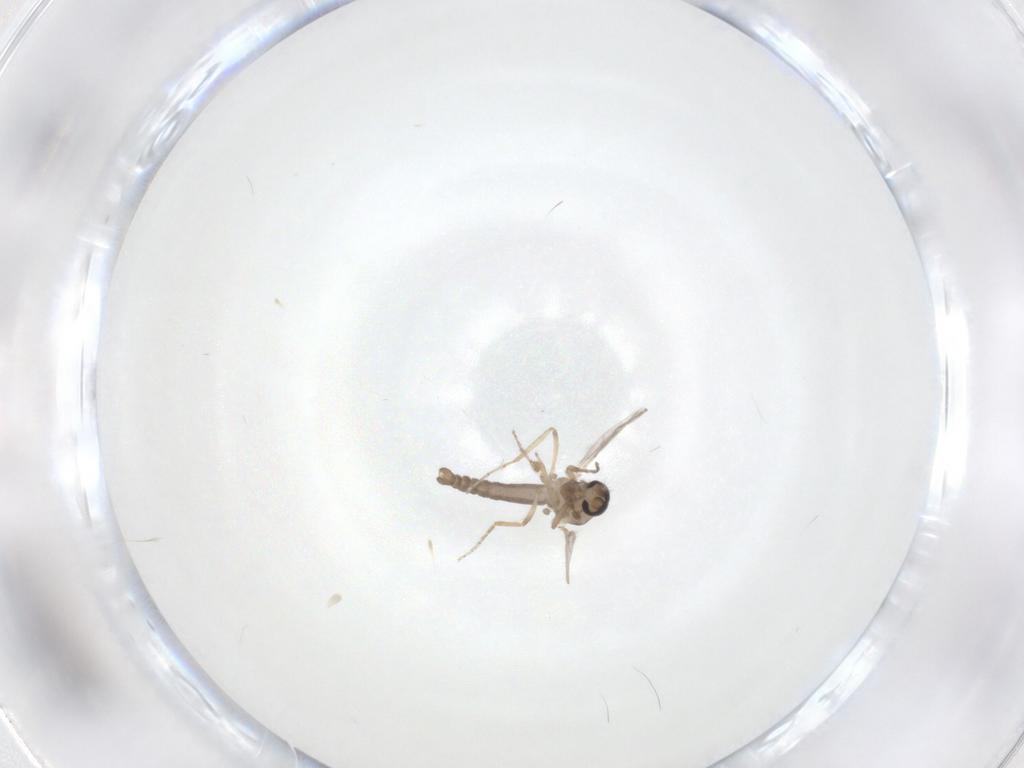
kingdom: Animalia
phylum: Arthropoda
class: Insecta
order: Diptera
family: Ceratopogonidae
